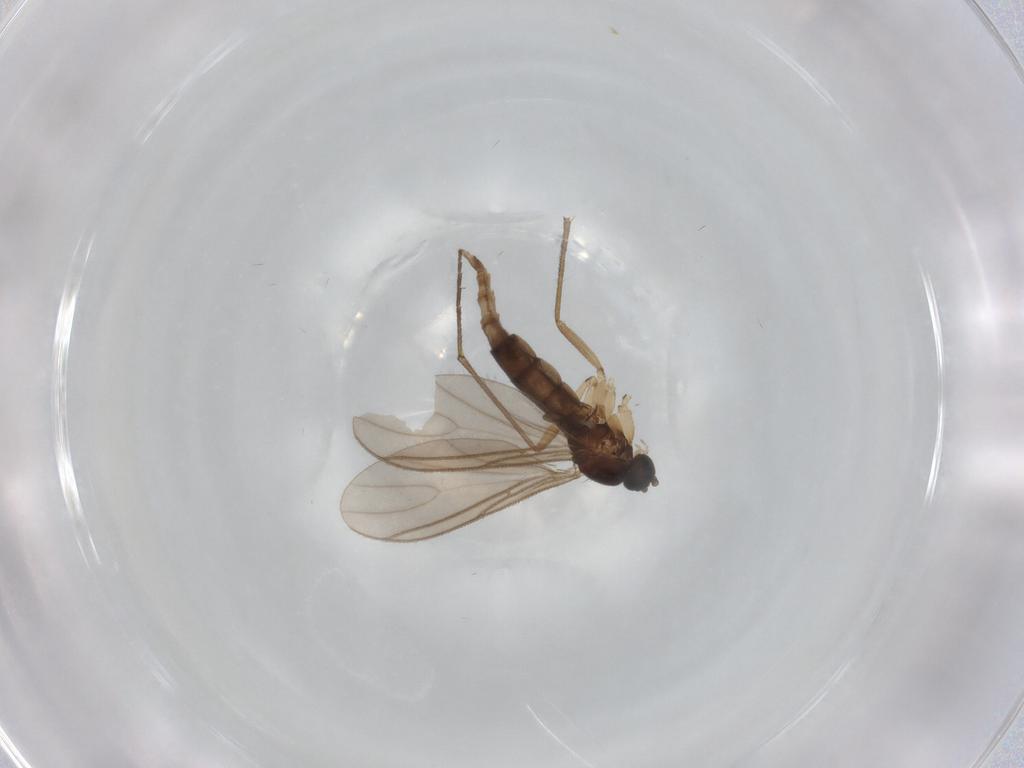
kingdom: Animalia
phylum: Arthropoda
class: Insecta
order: Diptera
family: Sciaridae
